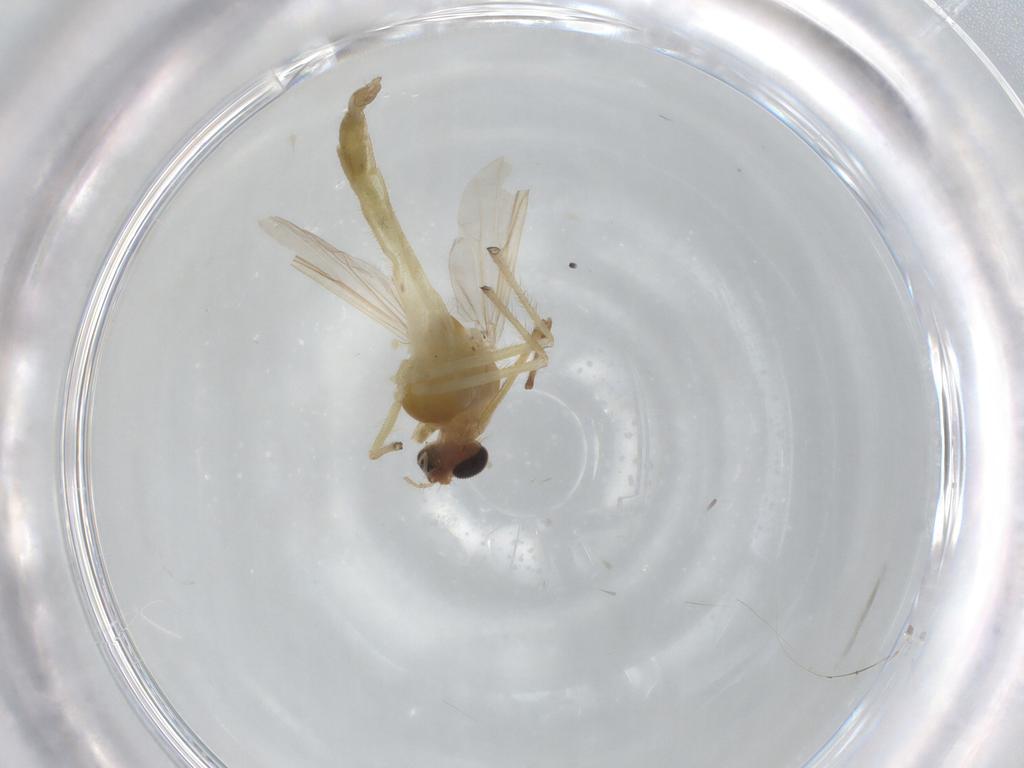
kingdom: Animalia
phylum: Arthropoda
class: Insecta
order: Diptera
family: Chironomidae
